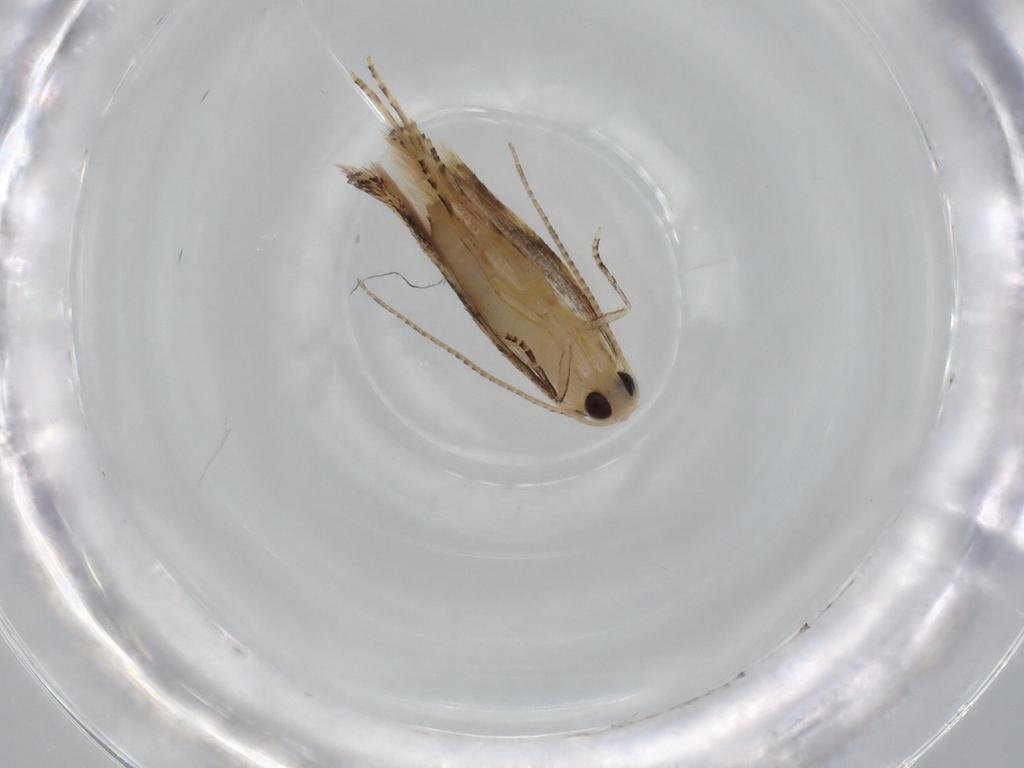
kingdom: Animalia
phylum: Arthropoda
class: Insecta
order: Lepidoptera
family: Bucculatricidae
